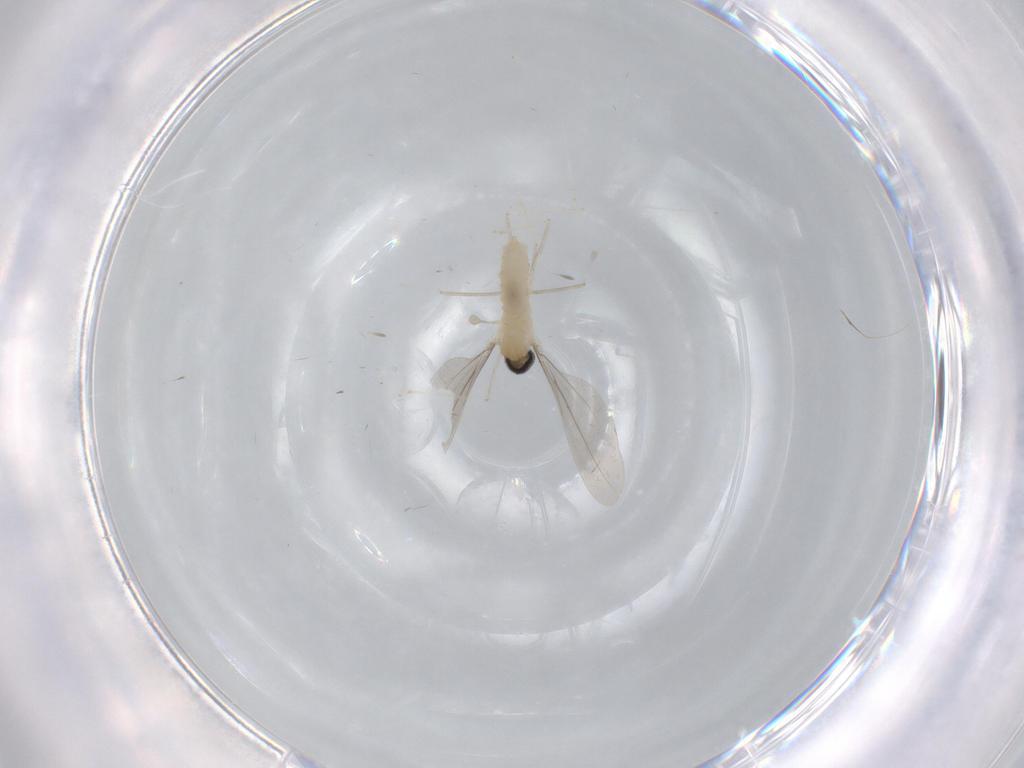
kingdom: Animalia
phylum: Arthropoda
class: Insecta
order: Diptera
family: Cecidomyiidae
